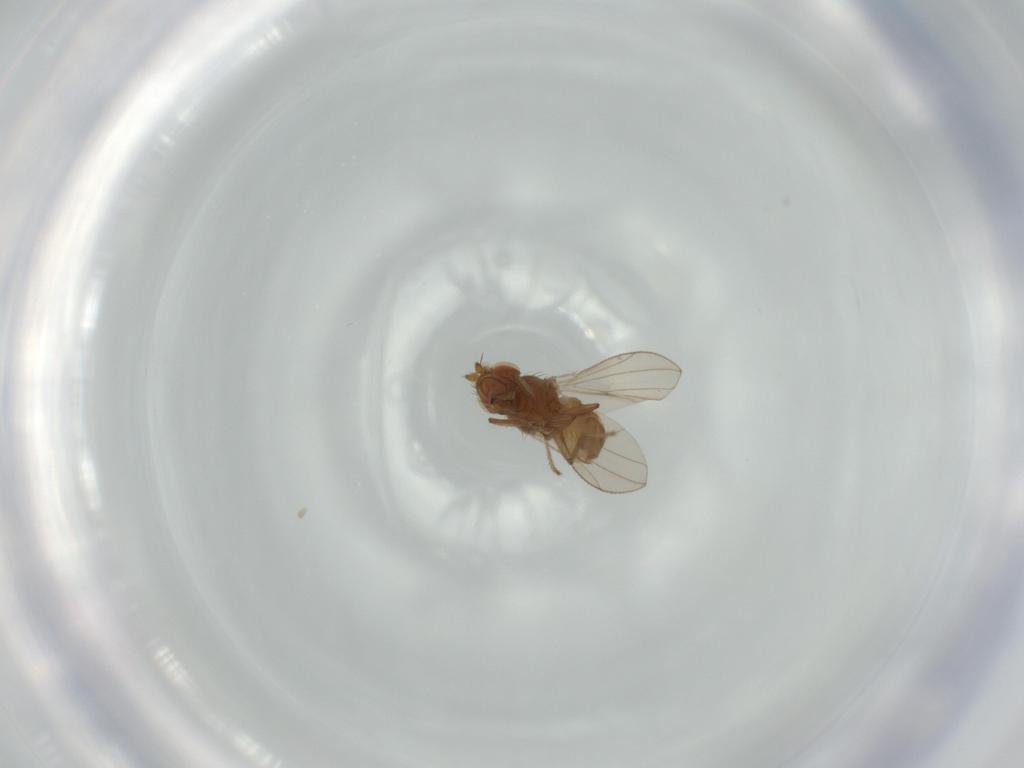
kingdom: Animalia
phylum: Arthropoda
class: Insecta
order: Diptera
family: Ephydridae
